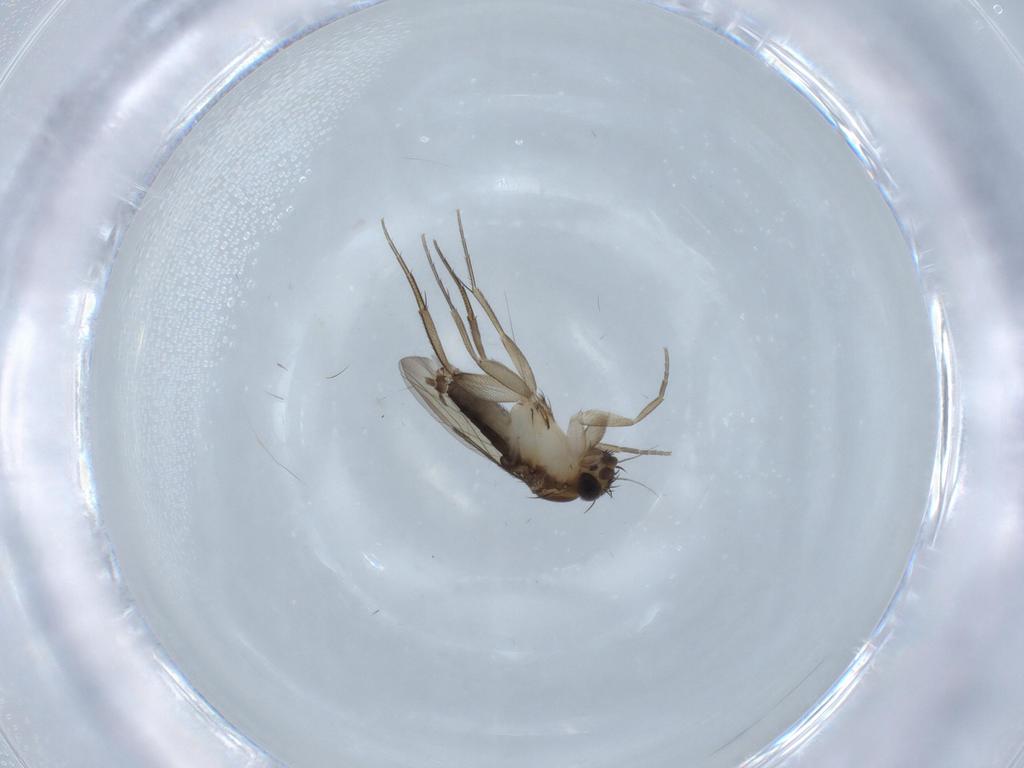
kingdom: Animalia
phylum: Arthropoda
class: Insecta
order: Diptera
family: Phoridae
